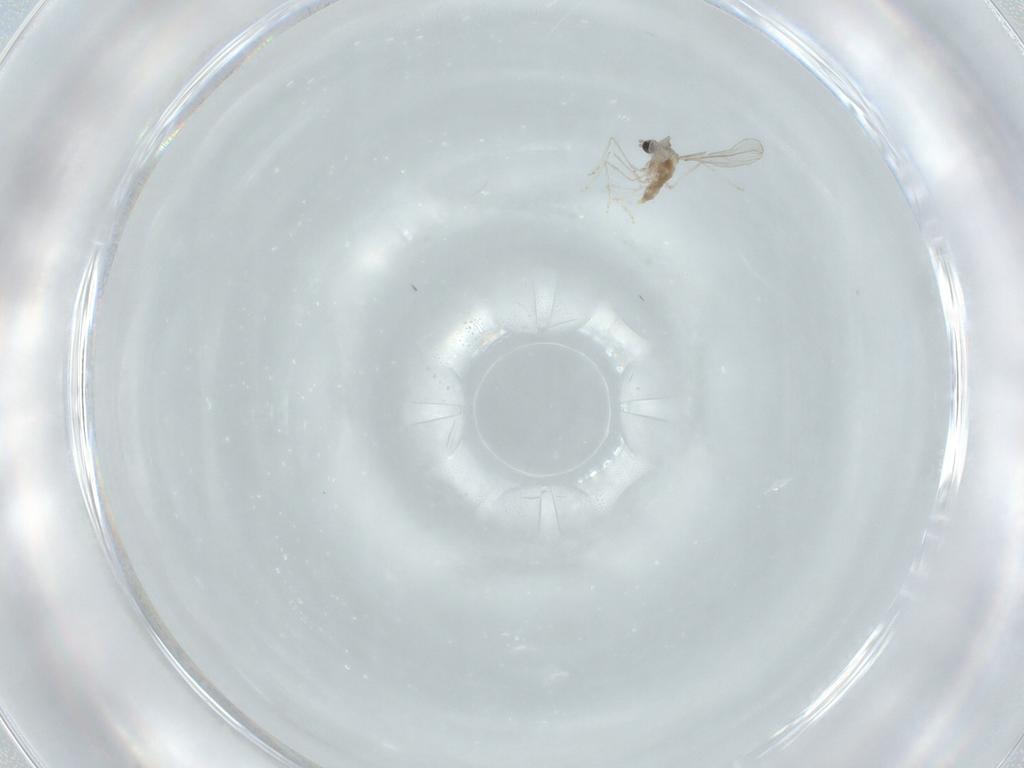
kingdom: Animalia
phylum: Arthropoda
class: Insecta
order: Diptera
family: Cecidomyiidae
